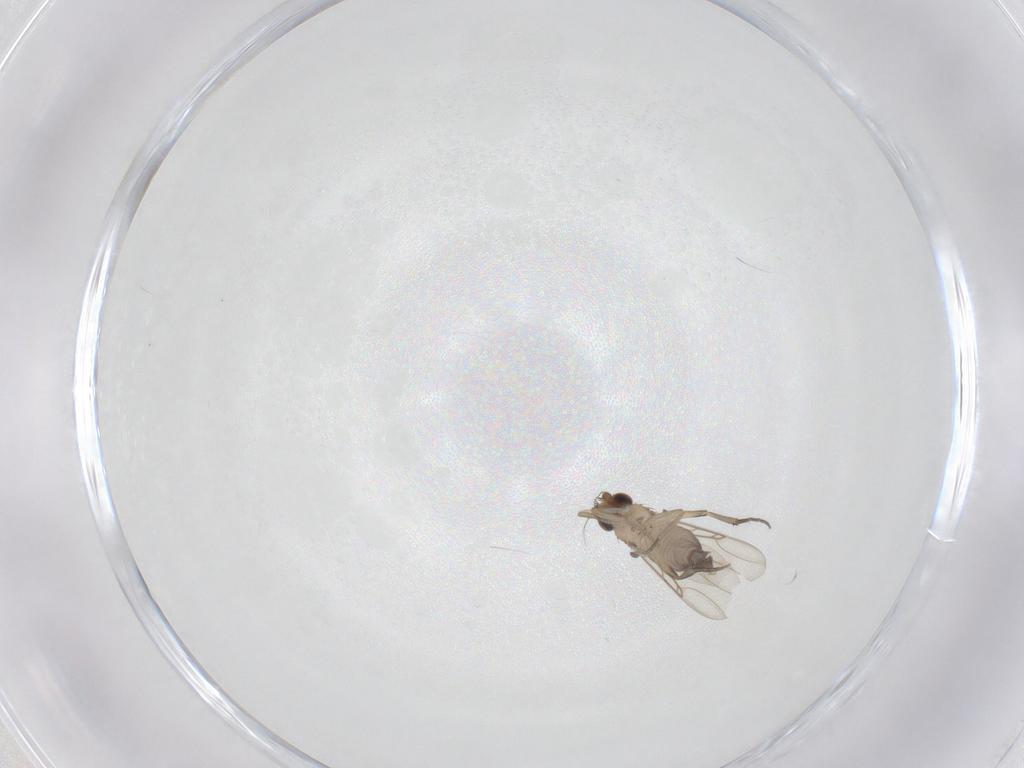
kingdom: Animalia
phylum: Arthropoda
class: Insecta
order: Diptera
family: Phoridae
